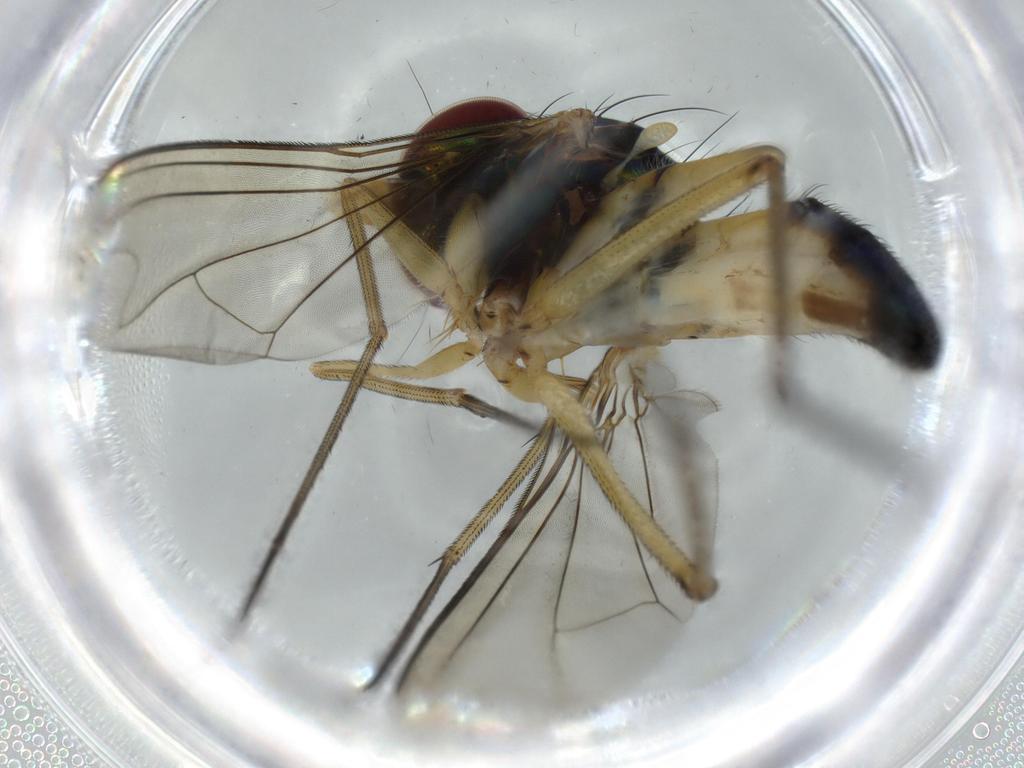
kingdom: Animalia
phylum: Arthropoda
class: Insecta
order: Diptera
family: Dolichopodidae
